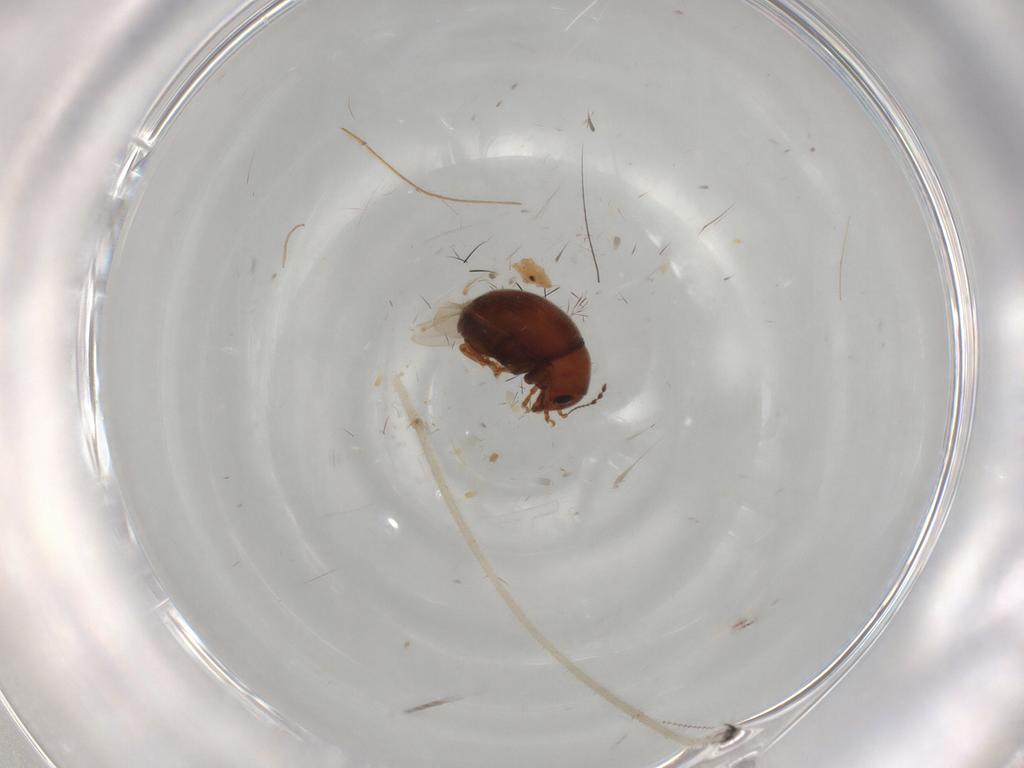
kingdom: Animalia
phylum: Arthropoda
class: Insecta
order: Coleoptera
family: Anthribidae
